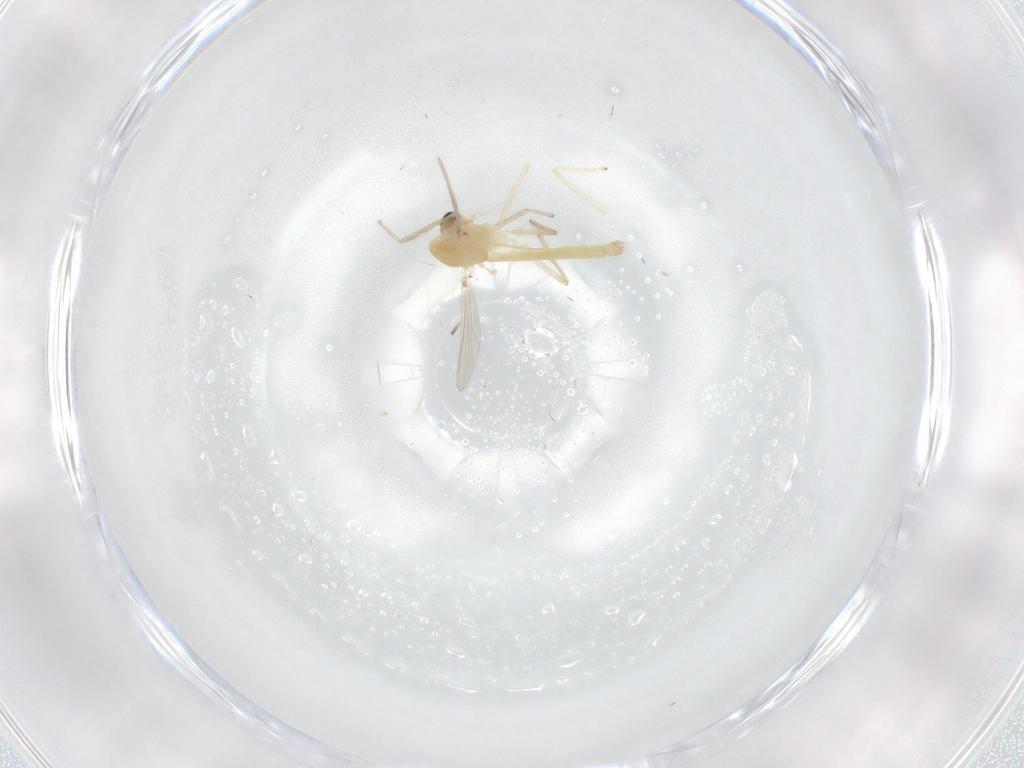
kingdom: Animalia
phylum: Arthropoda
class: Insecta
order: Diptera
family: Chironomidae
